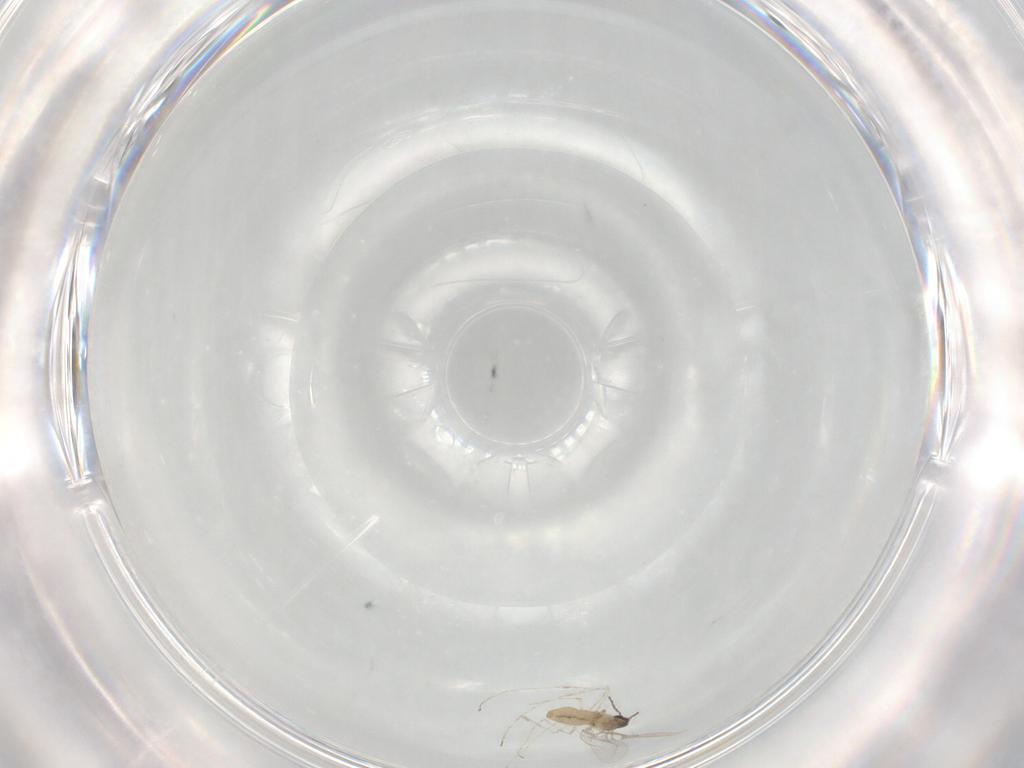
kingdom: Animalia
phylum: Arthropoda
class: Insecta
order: Diptera
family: Cecidomyiidae
